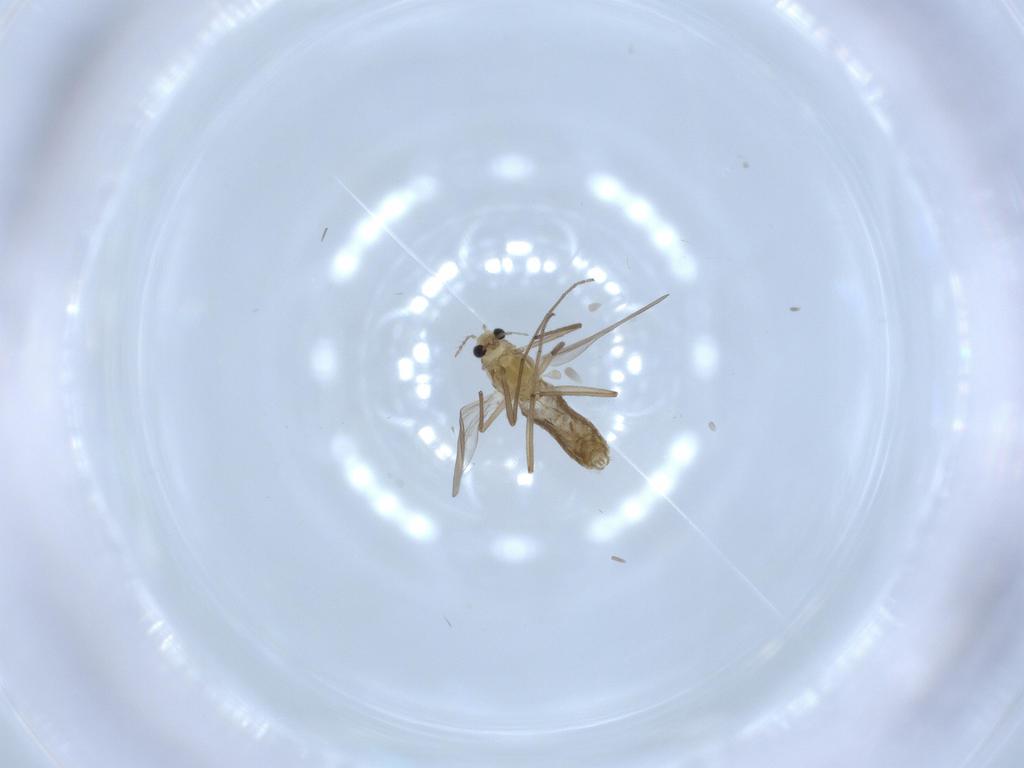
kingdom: Animalia
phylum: Arthropoda
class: Insecta
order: Diptera
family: Chironomidae
